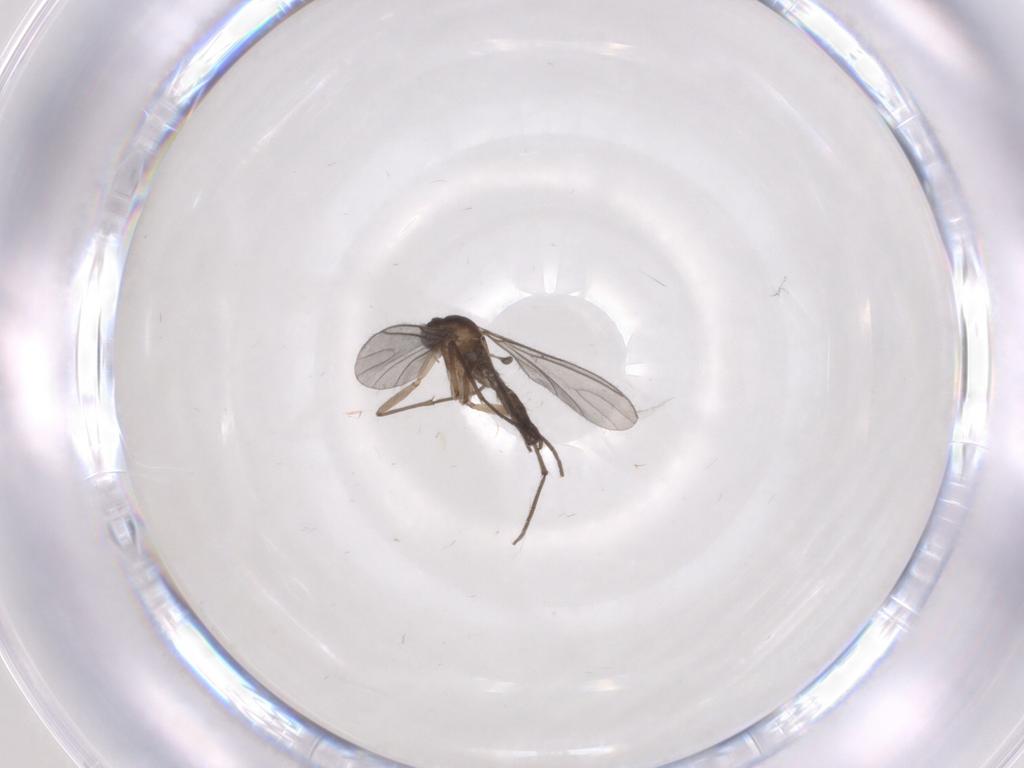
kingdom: Animalia
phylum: Arthropoda
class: Insecta
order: Diptera
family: Sciaridae
